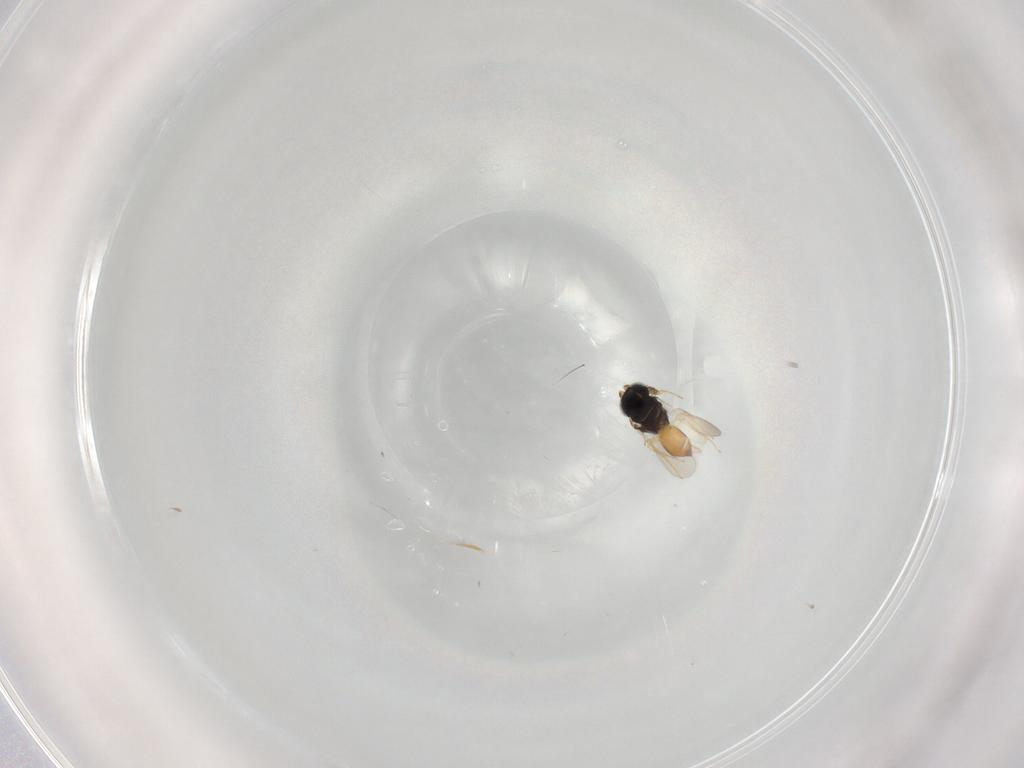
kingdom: Animalia
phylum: Arthropoda
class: Insecta
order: Hymenoptera
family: Scelionidae
